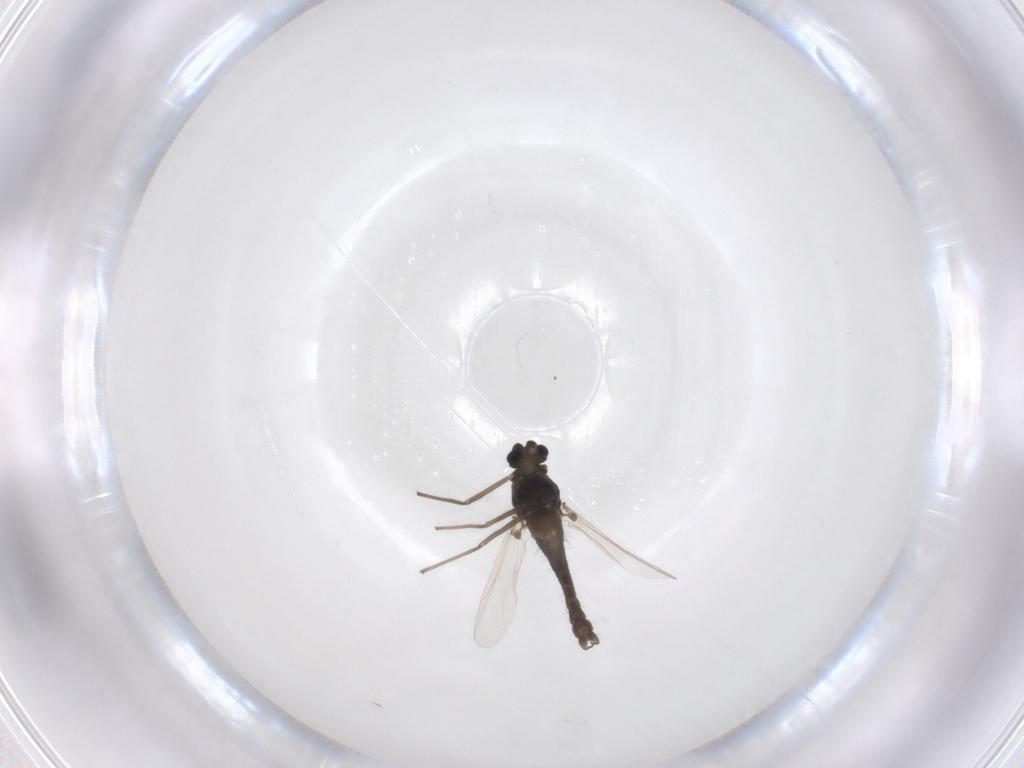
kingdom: Animalia
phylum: Arthropoda
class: Insecta
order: Diptera
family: Chironomidae
